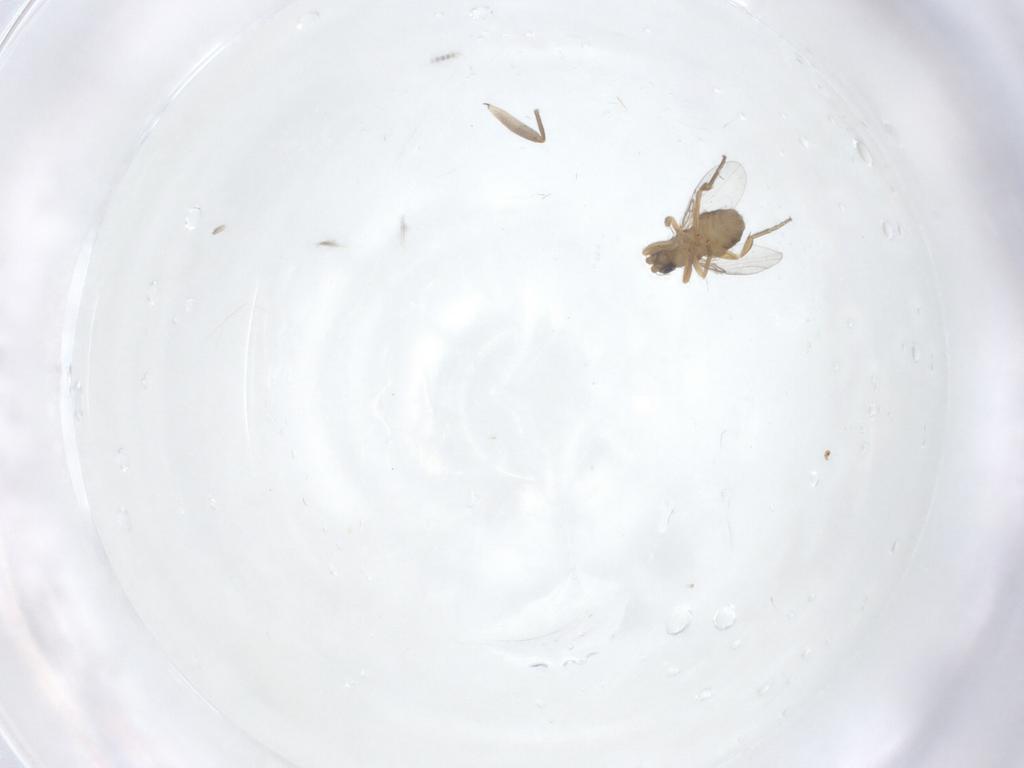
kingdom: Animalia
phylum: Arthropoda
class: Insecta
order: Diptera
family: Sciaridae
